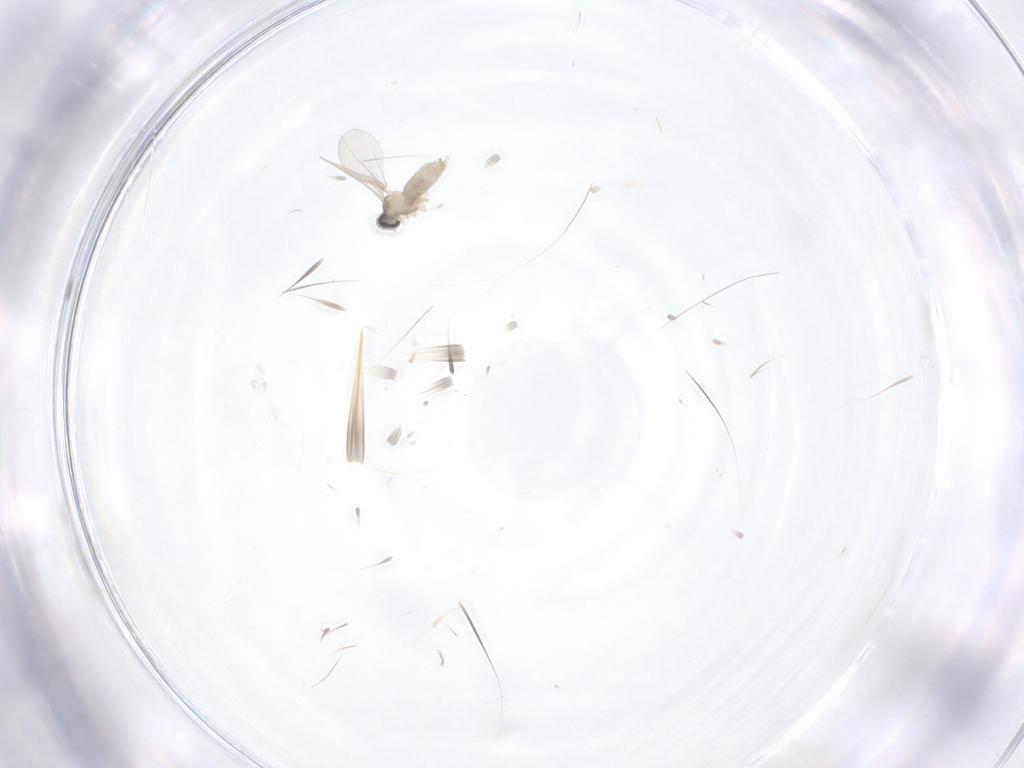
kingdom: Animalia
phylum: Arthropoda
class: Insecta
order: Diptera
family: Tabanidae
